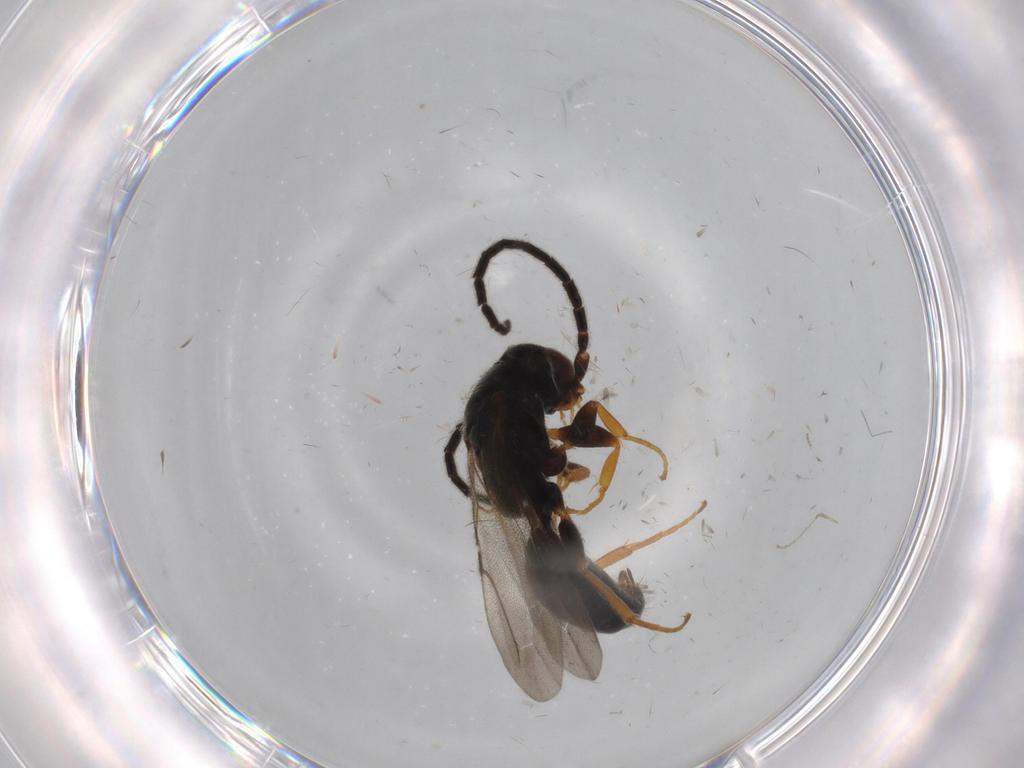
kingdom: Animalia
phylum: Arthropoda
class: Insecta
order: Hymenoptera
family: Bethylidae
